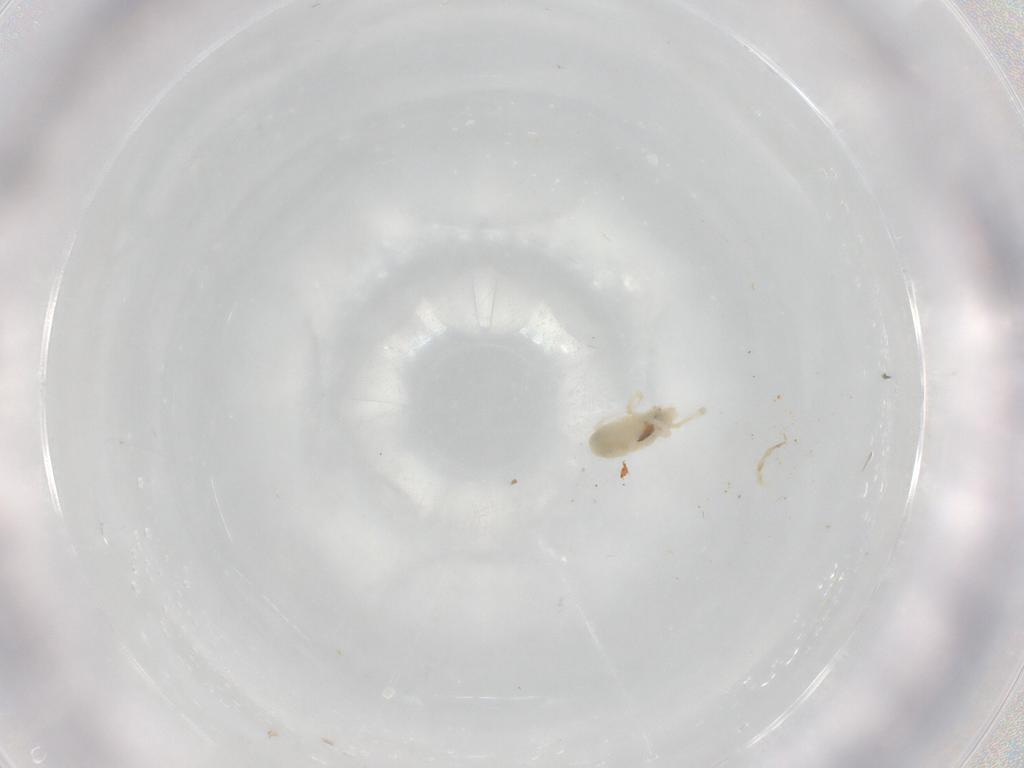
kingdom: Animalia
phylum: Arthropoda
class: Arachnida
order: Trombidiformes
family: Rhagidiidae
